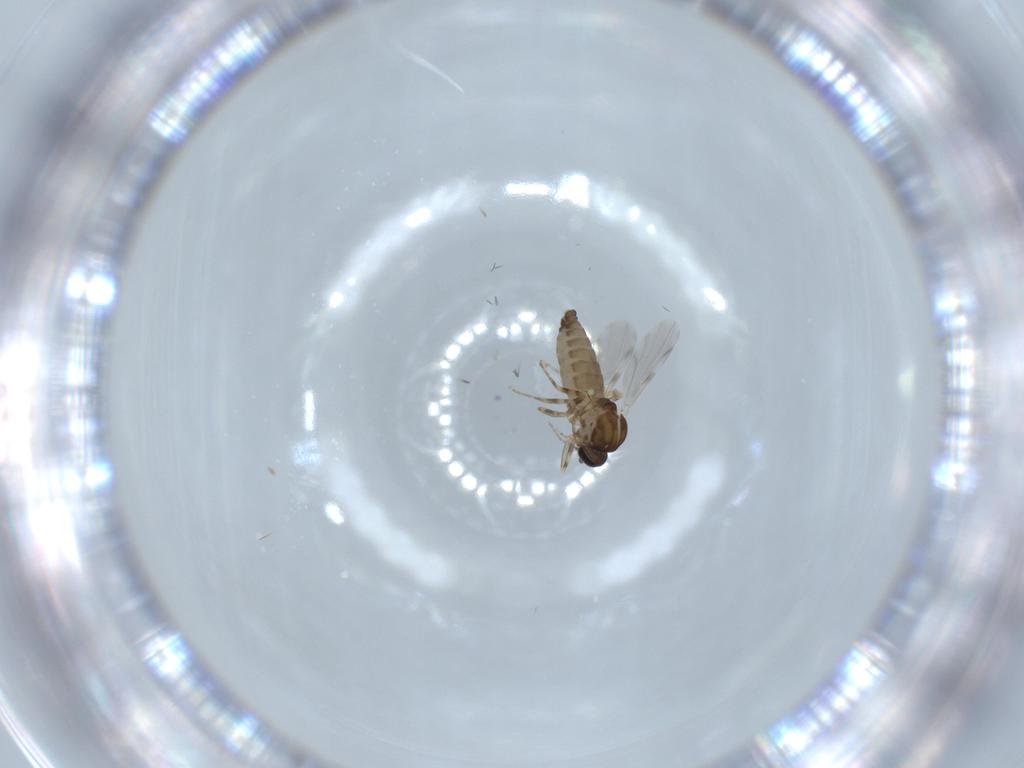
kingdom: Animalia
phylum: Arthropoda
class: Insecta
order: Diptera
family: Ceratopogonidae
